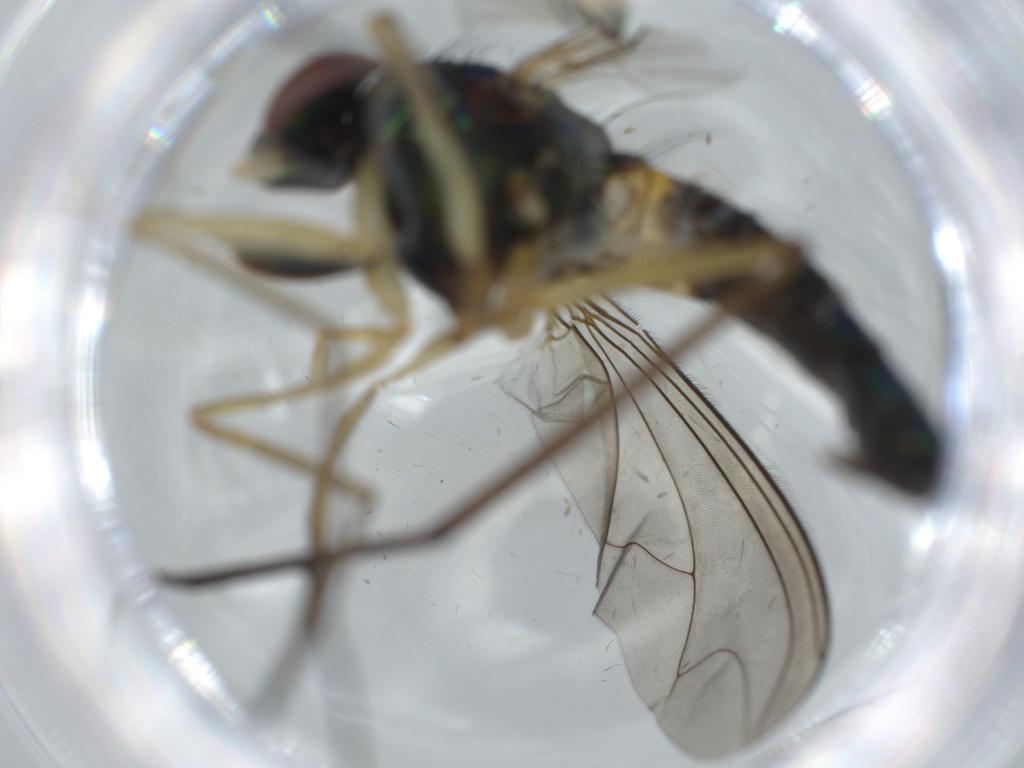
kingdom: Animalia
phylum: Arthropoda
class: Insecta
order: Diptera
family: Dolichopodidae
